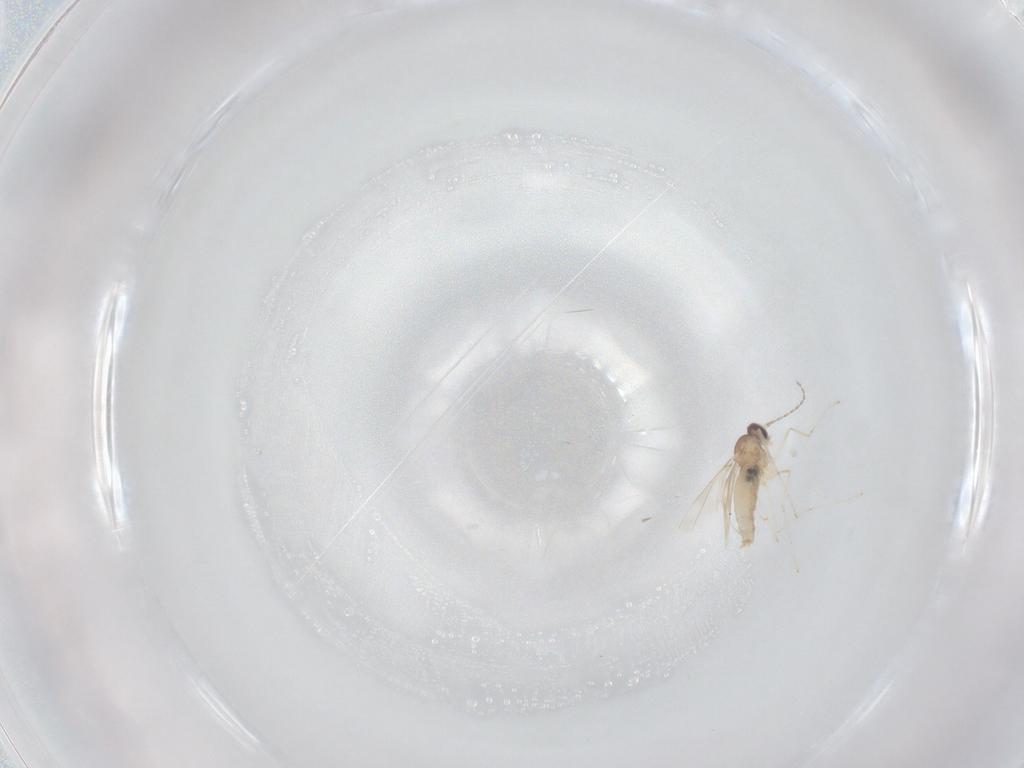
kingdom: Animalia
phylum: Arthropoda
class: Insecta
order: Diptera
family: Cecidomyiidae
